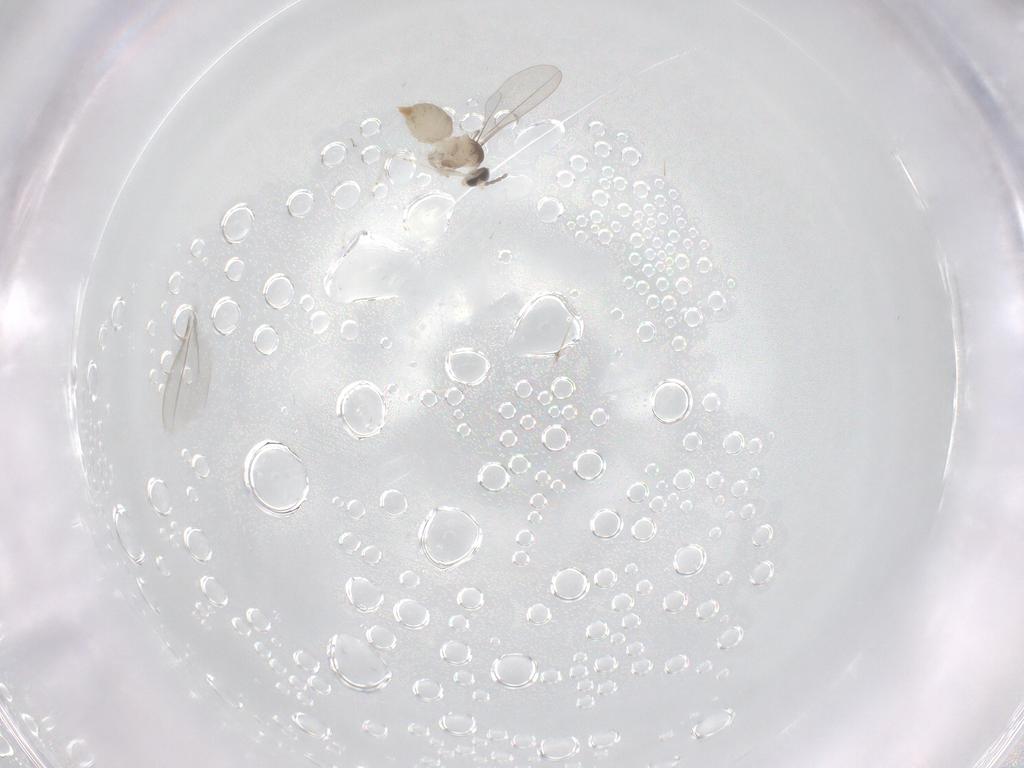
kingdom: Animalia
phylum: Arthropoda
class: Insecta
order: Diptera
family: Cecidomyiidae
